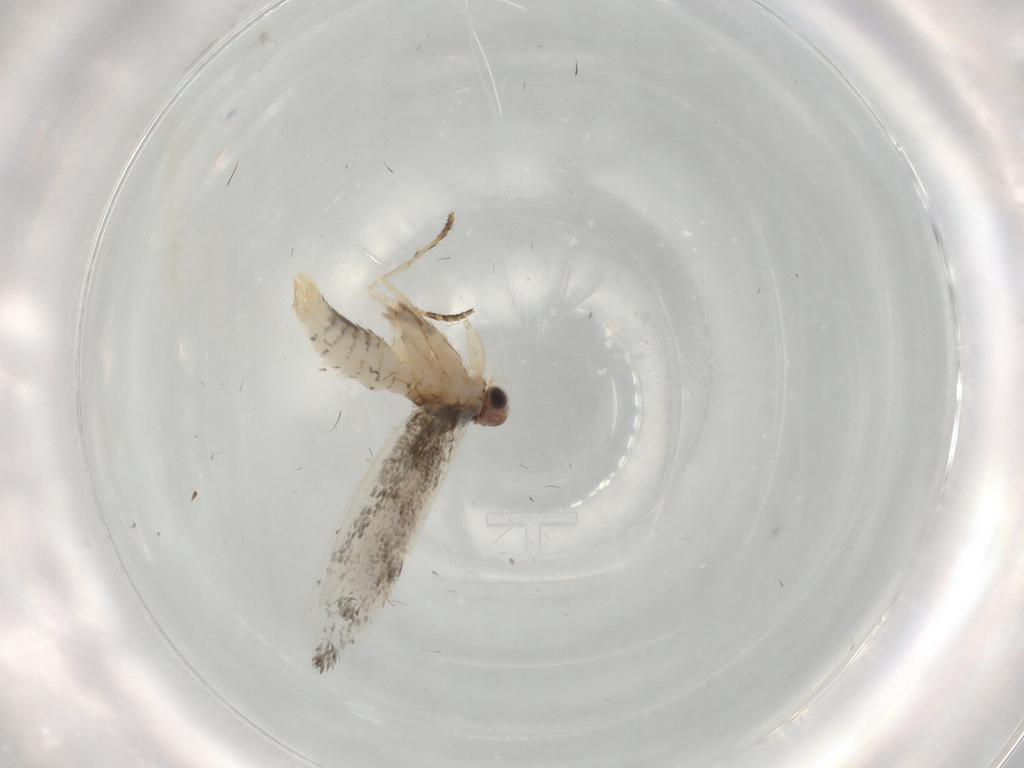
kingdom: Animalia
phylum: Arthropoda
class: Insecta
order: Lepidoptera
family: Tineidae
